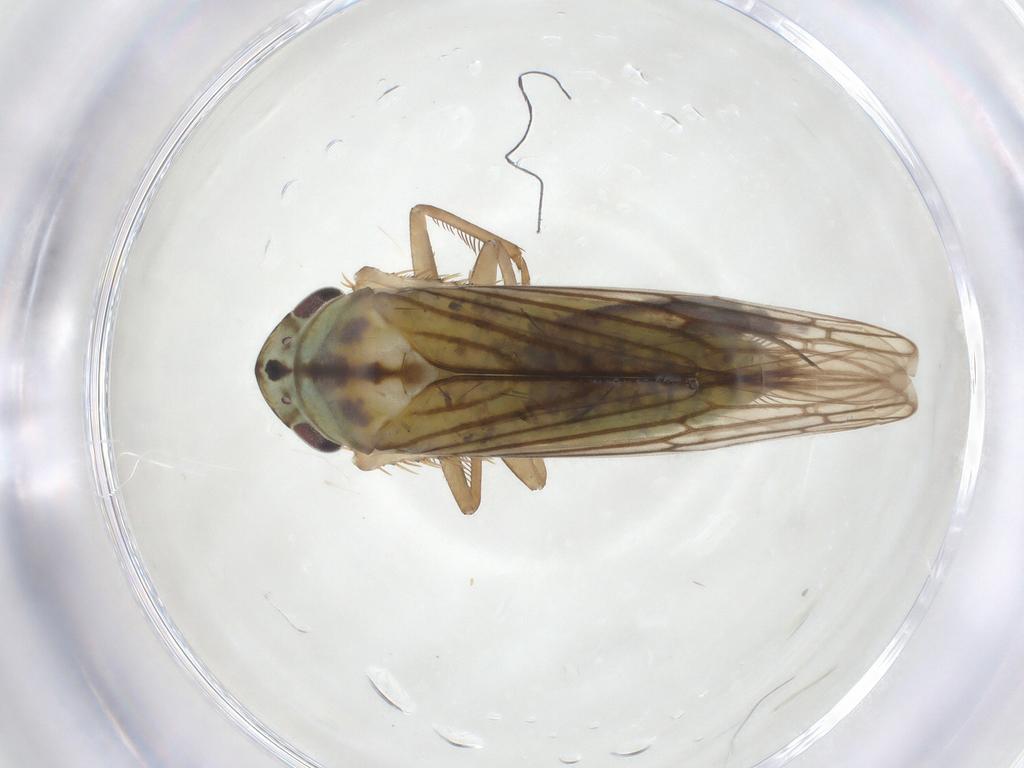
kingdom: Animalia
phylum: Arthropoda
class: Insecta
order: Hemiptera
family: Cicadellidae
